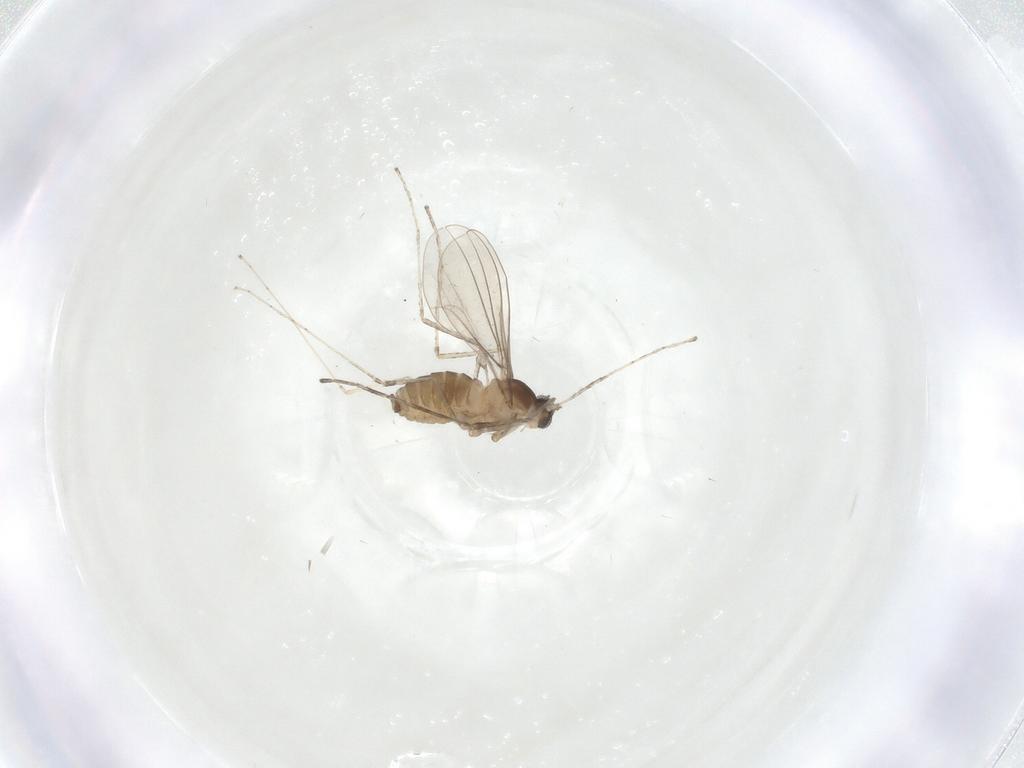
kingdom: Animalia
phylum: Arthropoda
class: Insecta
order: Diptera
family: Cecidomyiidae
